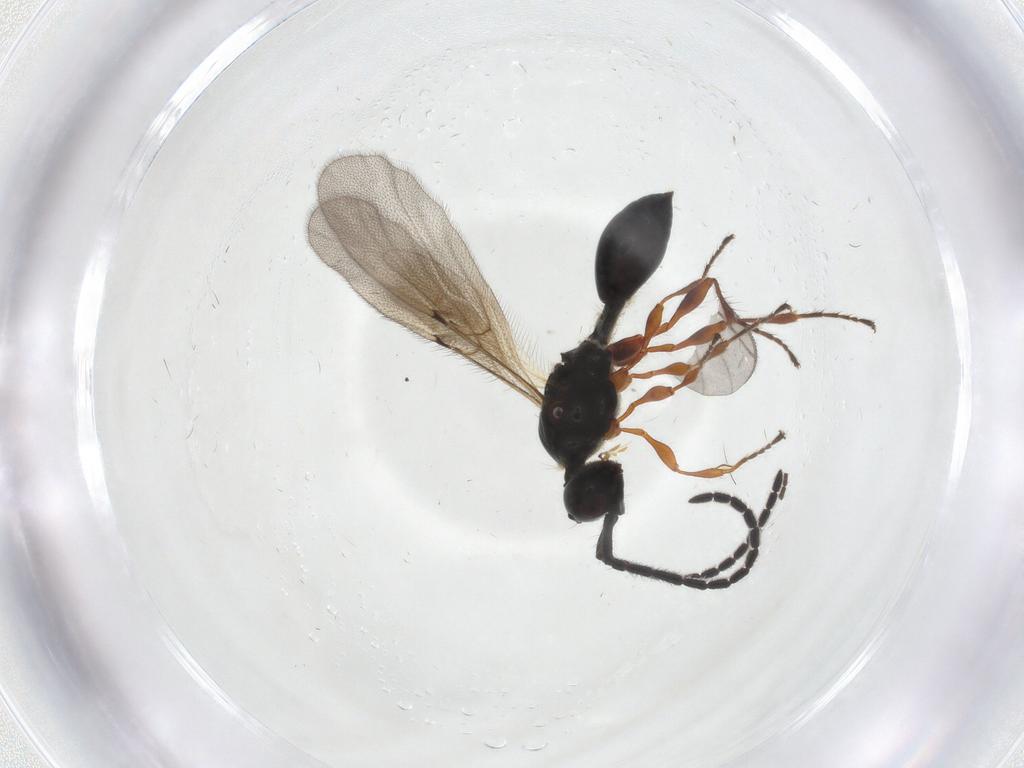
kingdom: Animalia
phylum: Arthropoda
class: Insecta
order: Hymenoptera
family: Diapriidae
